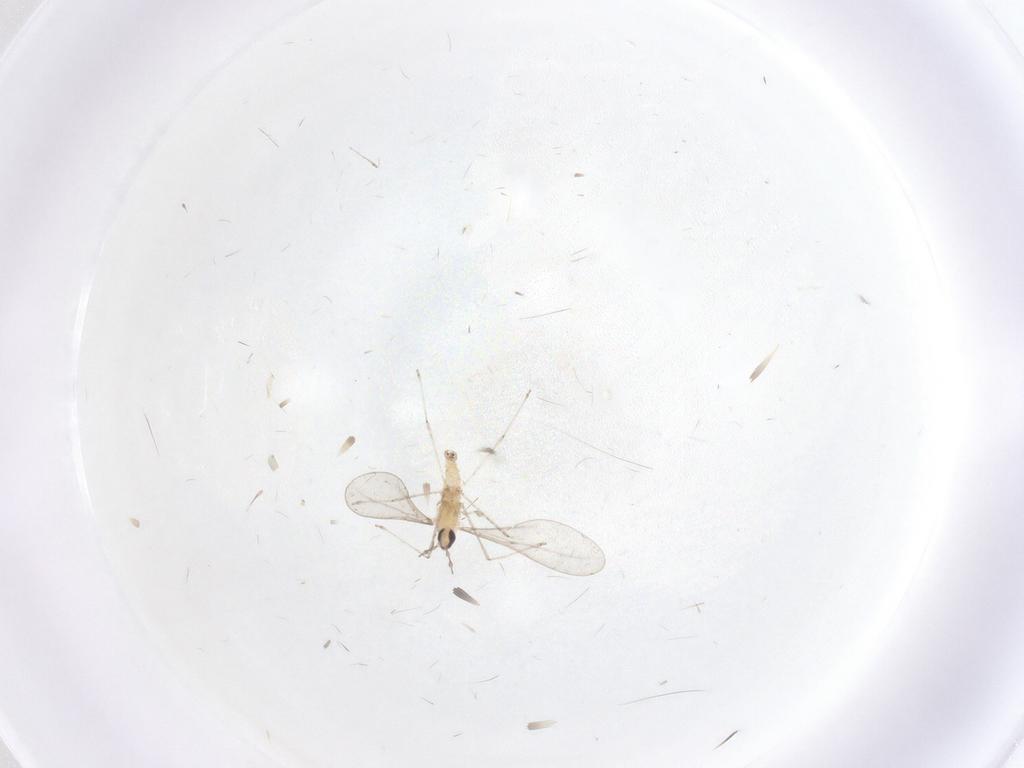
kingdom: Animalia
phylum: Arthropoda
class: Insecta
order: Diptera
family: Cecidomyiidae
